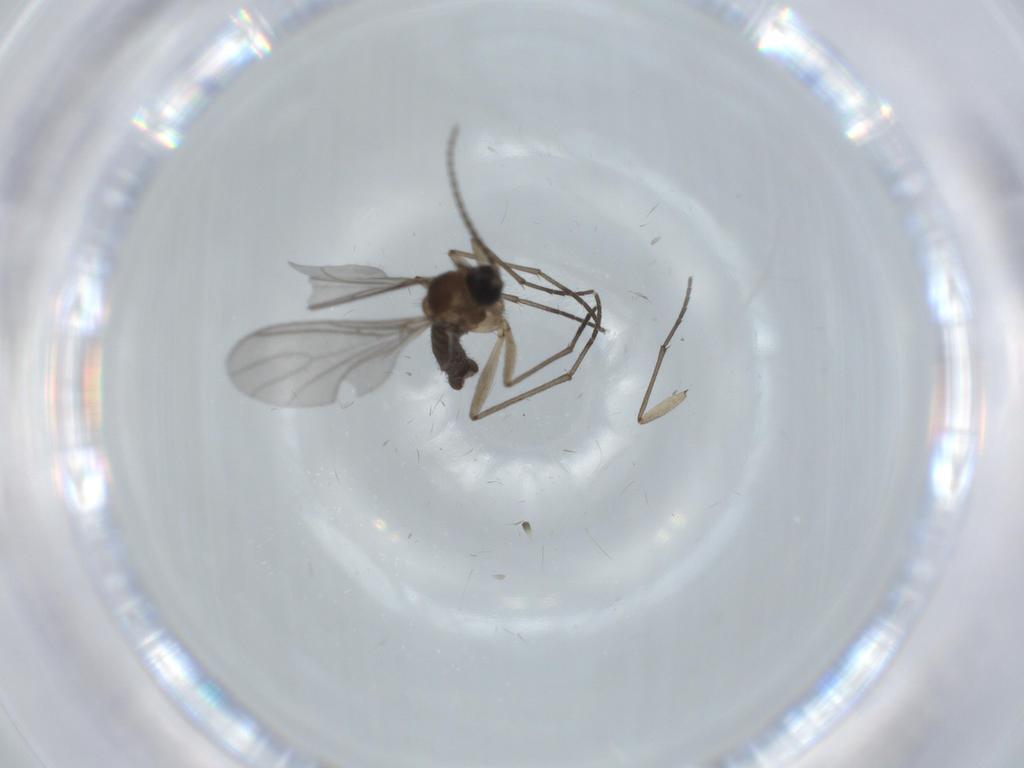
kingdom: Animalia
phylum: Arthropoda
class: Insecta
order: Diptera
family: Sciaridae
